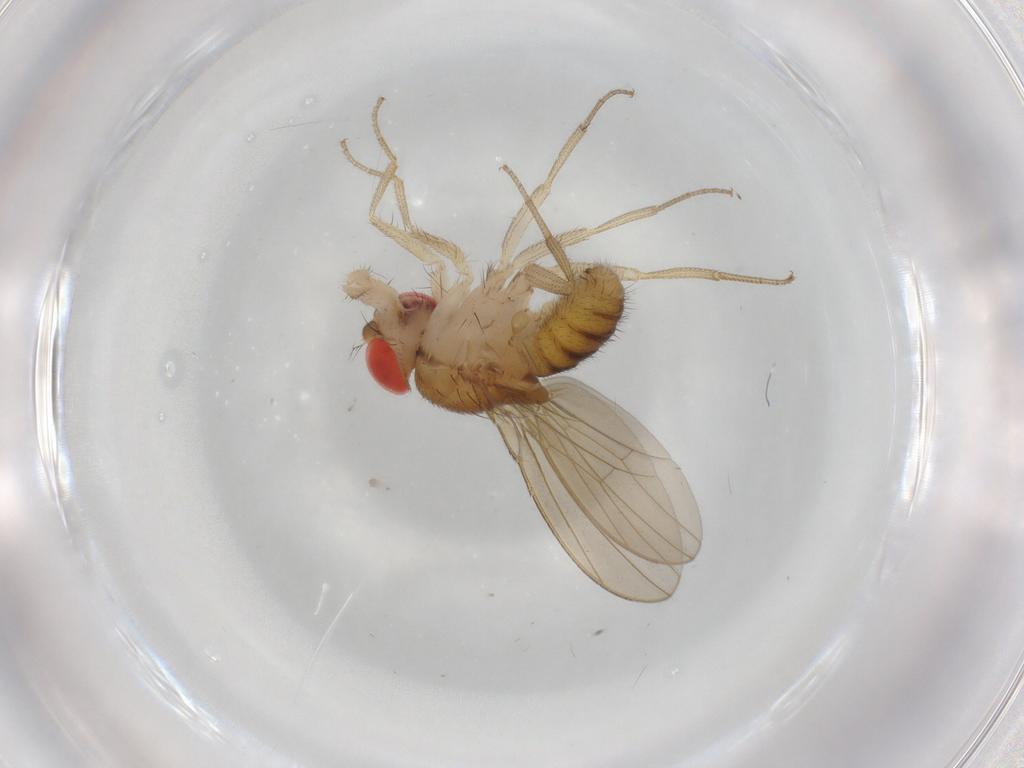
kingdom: Animalia
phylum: Arthropoda
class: Insecta
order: Diptera
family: Drosophilidae
